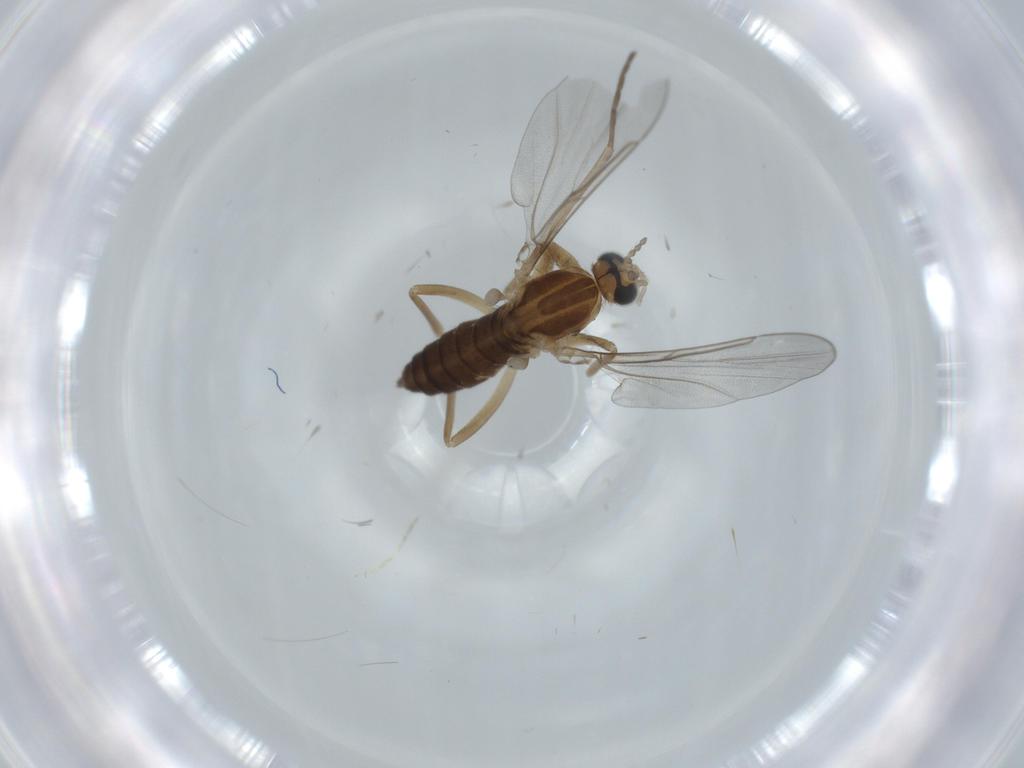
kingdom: Animalia
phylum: Arthropoda
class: Insecta
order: Diptera
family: Cecidomyiidae
